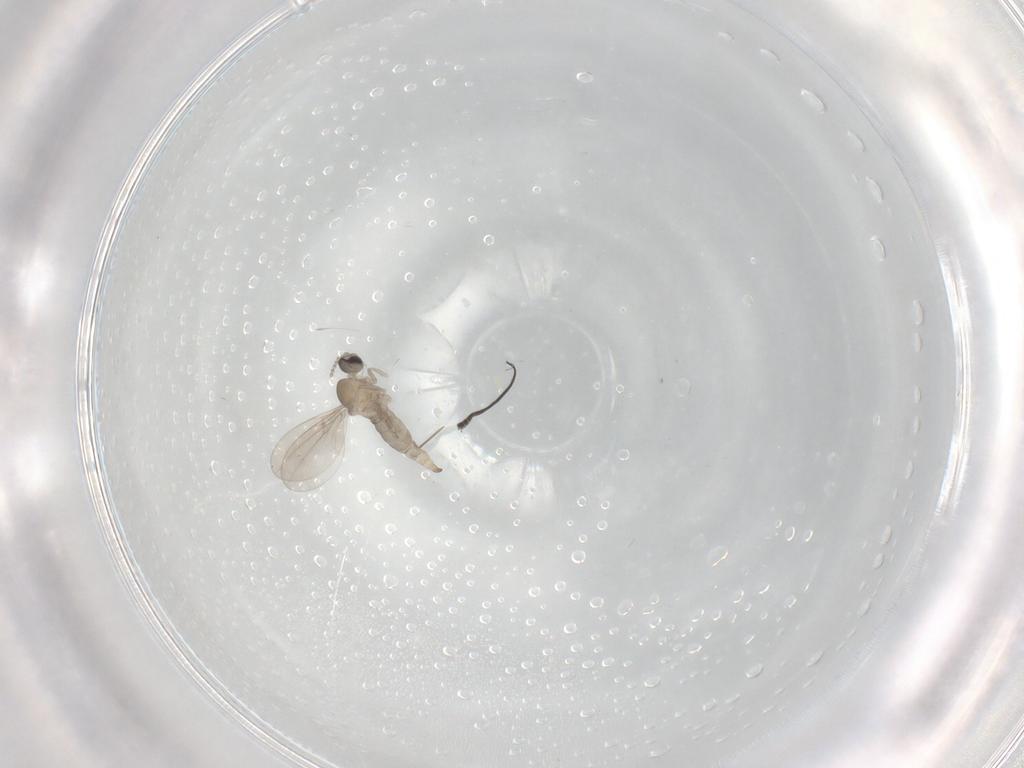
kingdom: Animalia
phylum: Arthropoda
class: Insecta
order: Diptera
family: Cecidomyiidae
